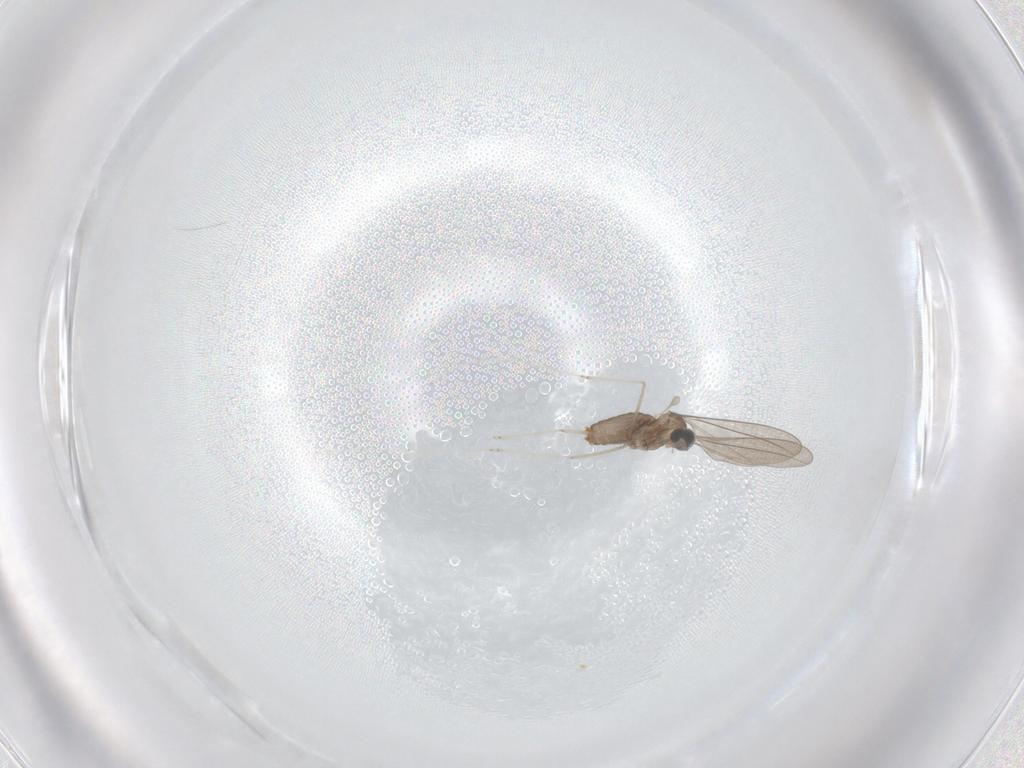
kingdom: Animalia
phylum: Arthropoda
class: Insecta
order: Diptera
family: Cecidomyiidae
